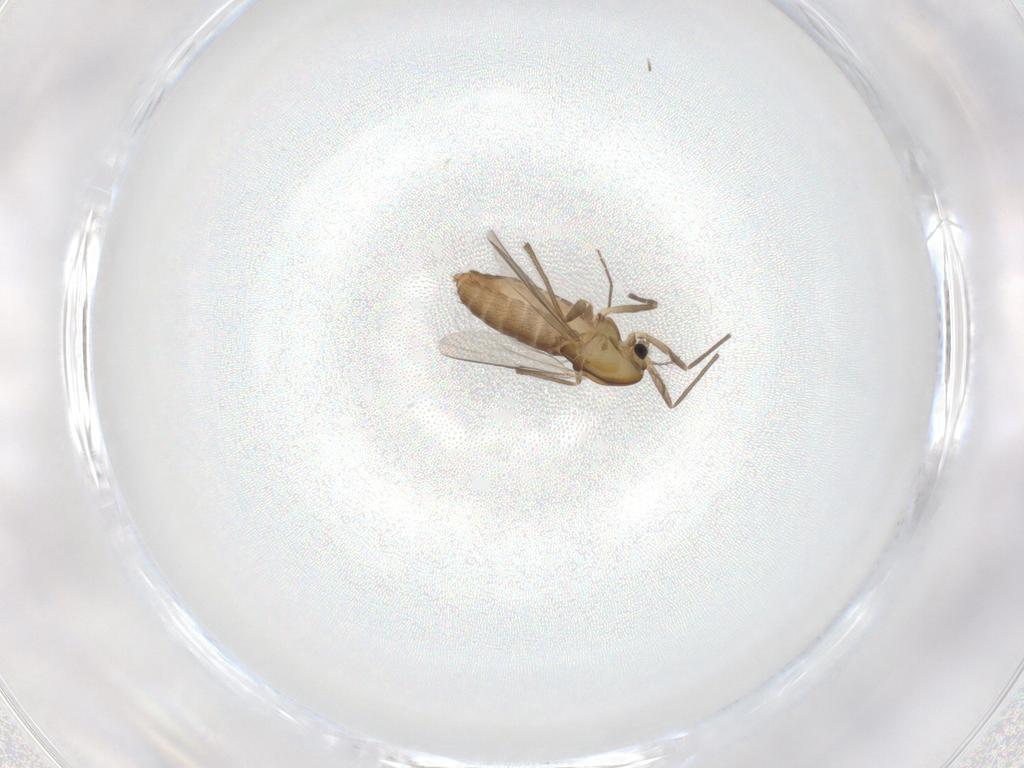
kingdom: Animalia
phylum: Arthropoda
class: Insecta
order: Diptera
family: Chironomidae
